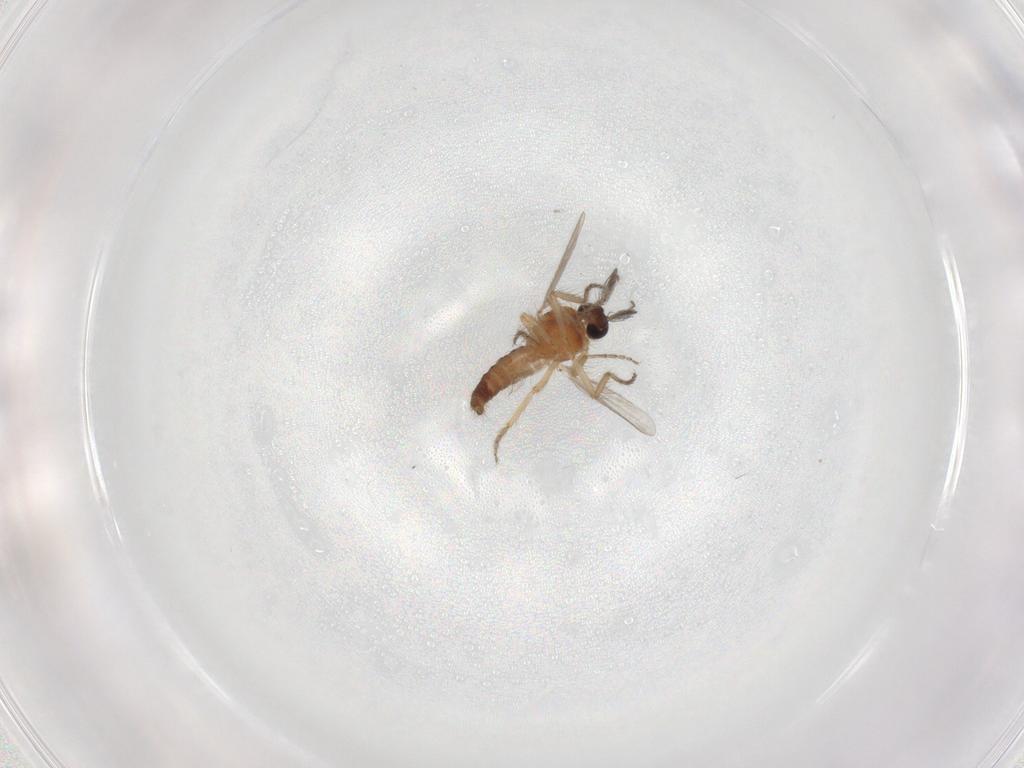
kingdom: Animalia
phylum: Arthropoda
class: Insecta
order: Diptera
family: Ceratopogonidae
